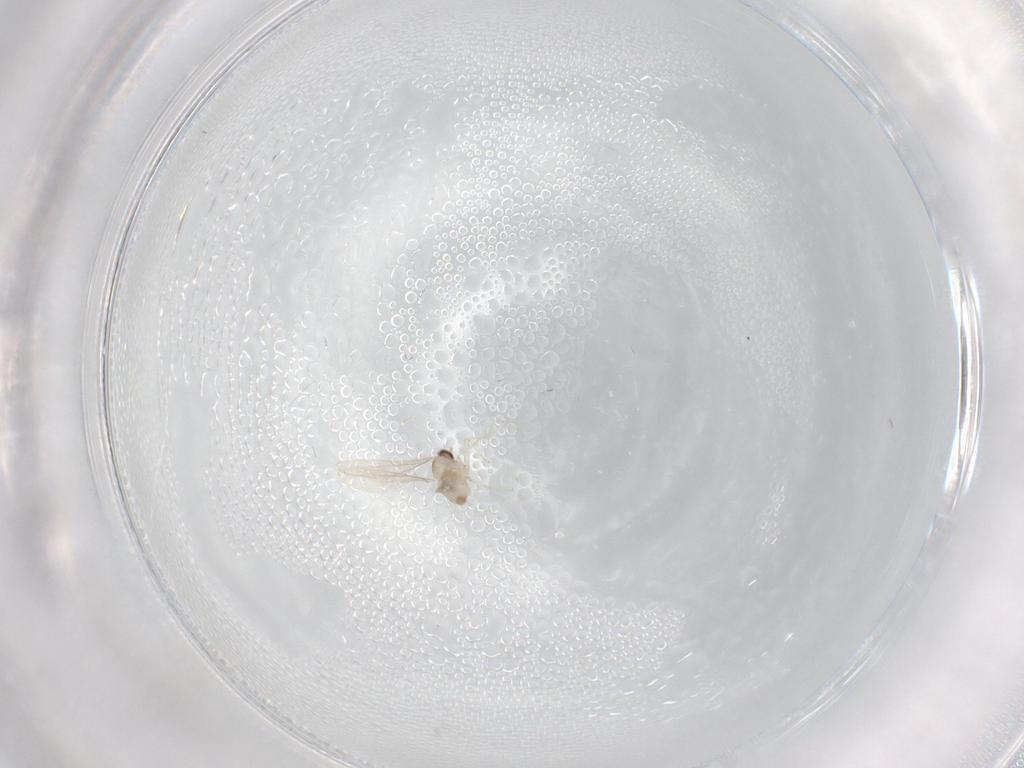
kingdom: Animalia
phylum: Arthropoda
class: Insecta
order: Diptera
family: Cecidomyiidae
